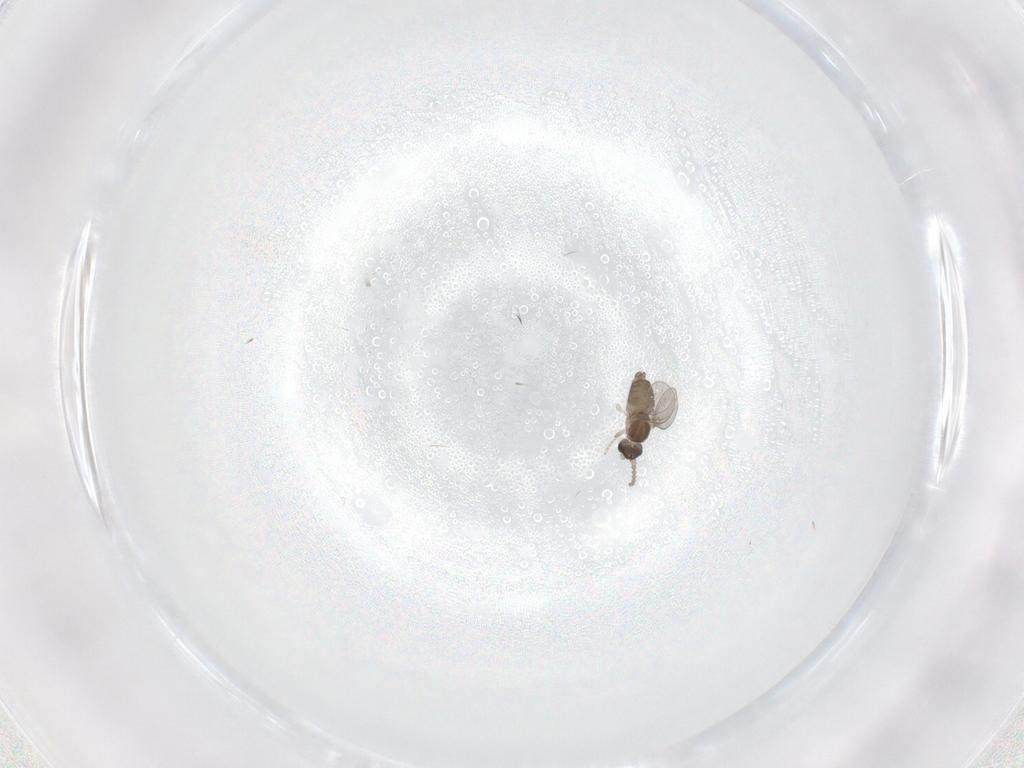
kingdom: Animalia
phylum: Arthropoda
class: Insecta
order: Diptera
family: Cecidomyiidae
